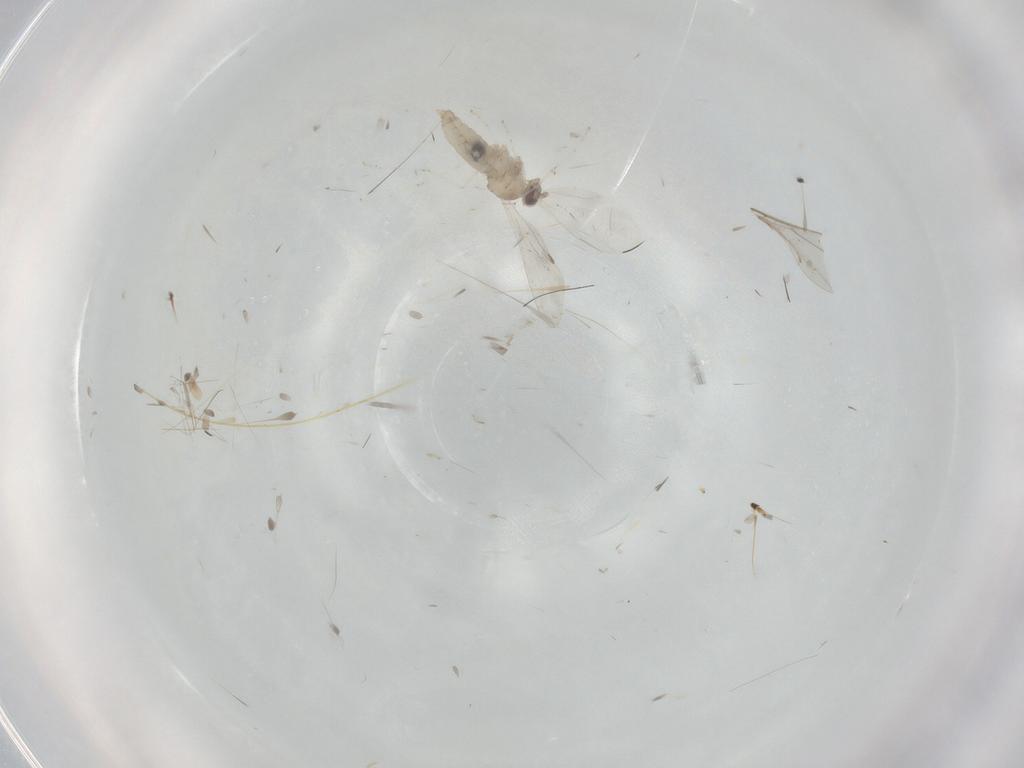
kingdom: Animalia
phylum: Arthropoda
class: Insecta
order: Diptera
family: Cecidomyiidae
